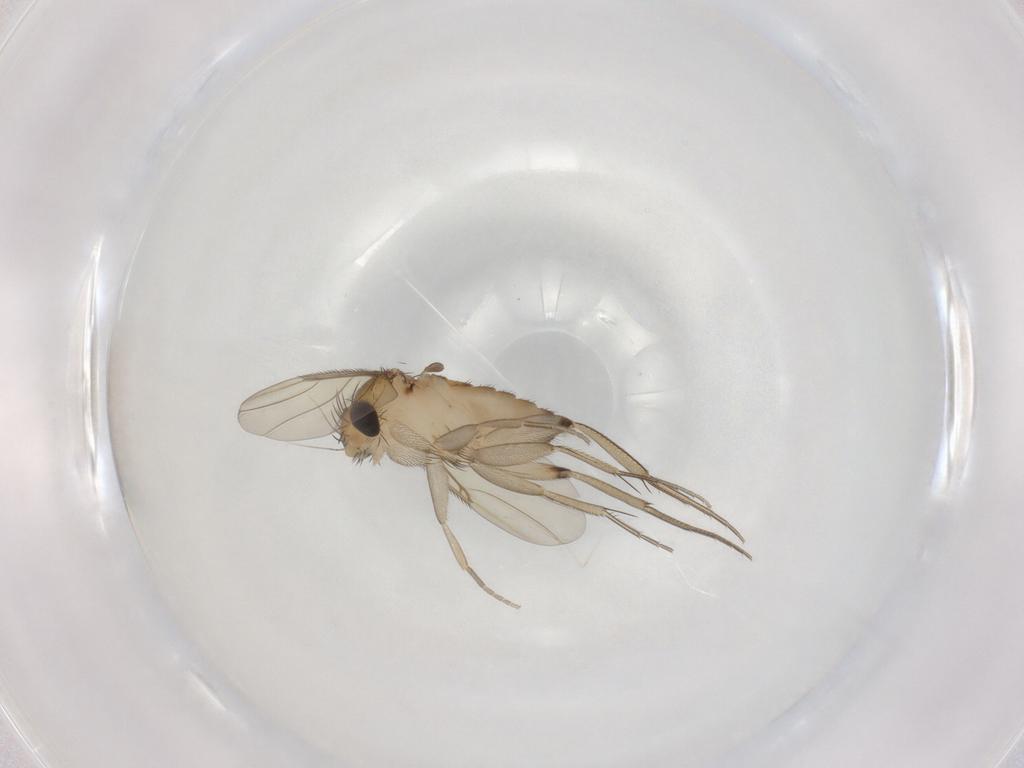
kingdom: Animalia
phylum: Arthropoda
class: Insecta
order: Diptera
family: Phoridae
